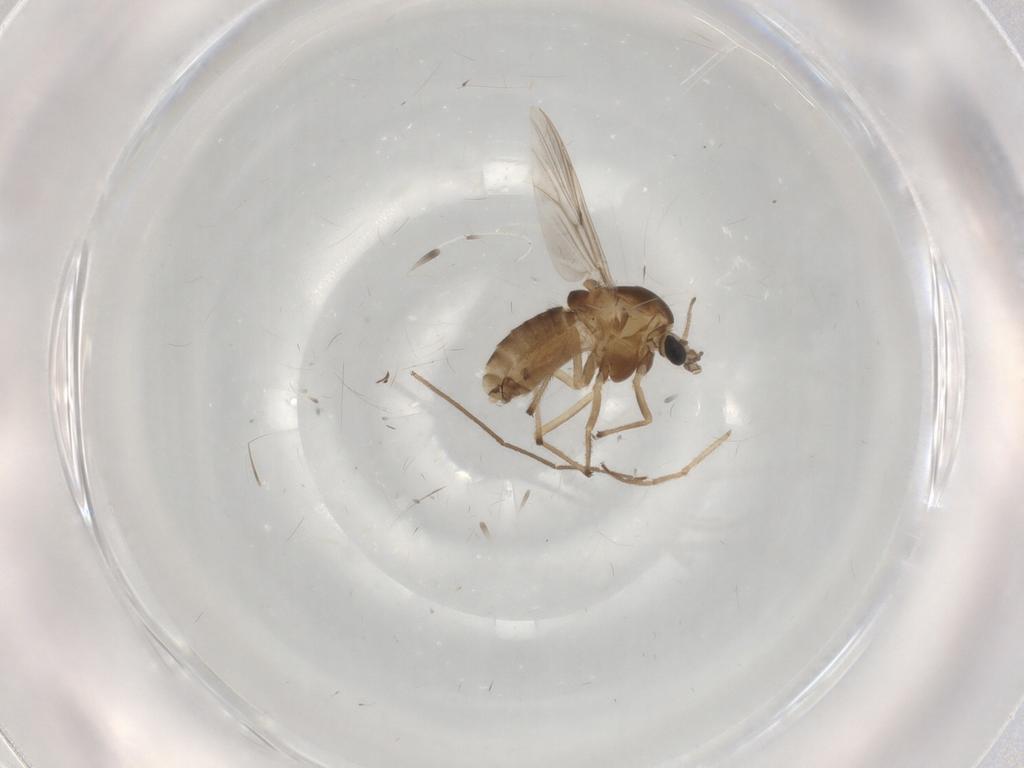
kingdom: Animalia
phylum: Arthropoda
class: Insecta
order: Diptera
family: Chironomidae
